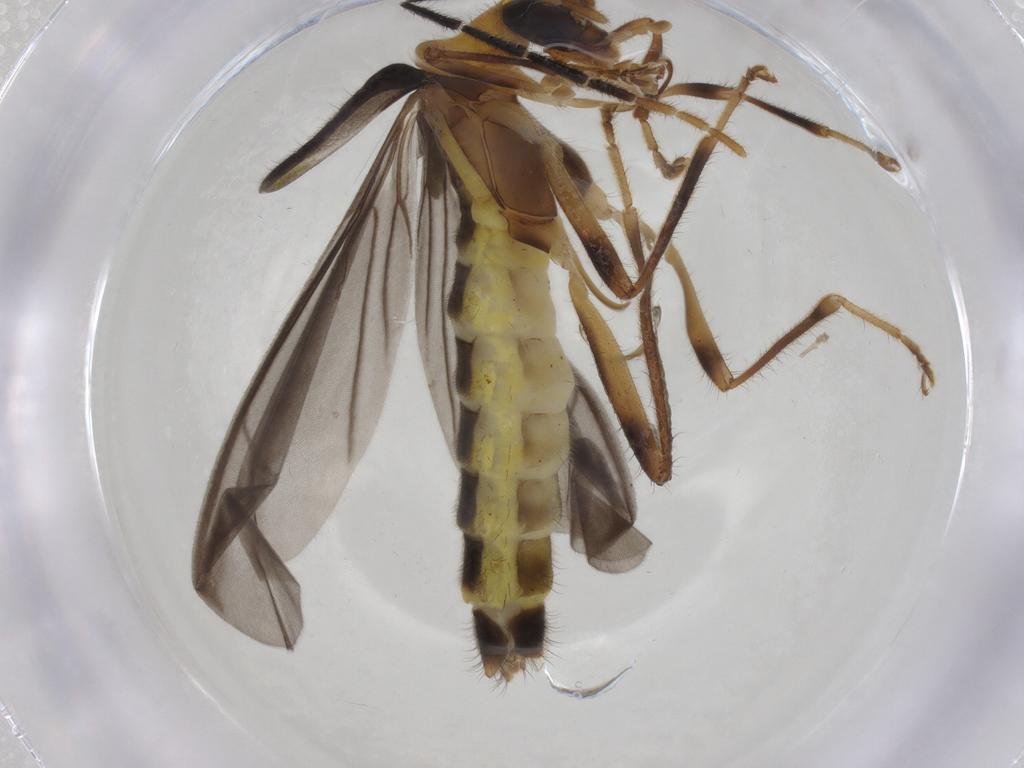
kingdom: Animalia
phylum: Arthropoda
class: Insecta
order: Coleoptera
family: Cantharidae
